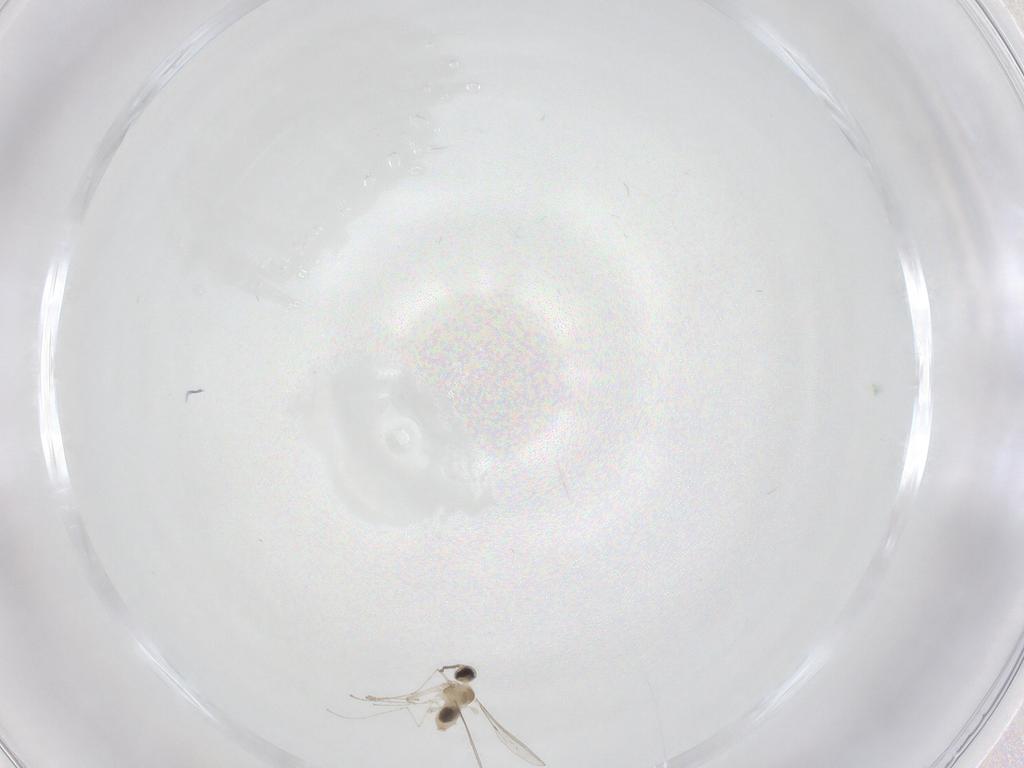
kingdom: Animalia
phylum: Arthropoda
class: Insecta
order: Diptera
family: Cecidomyiidae
